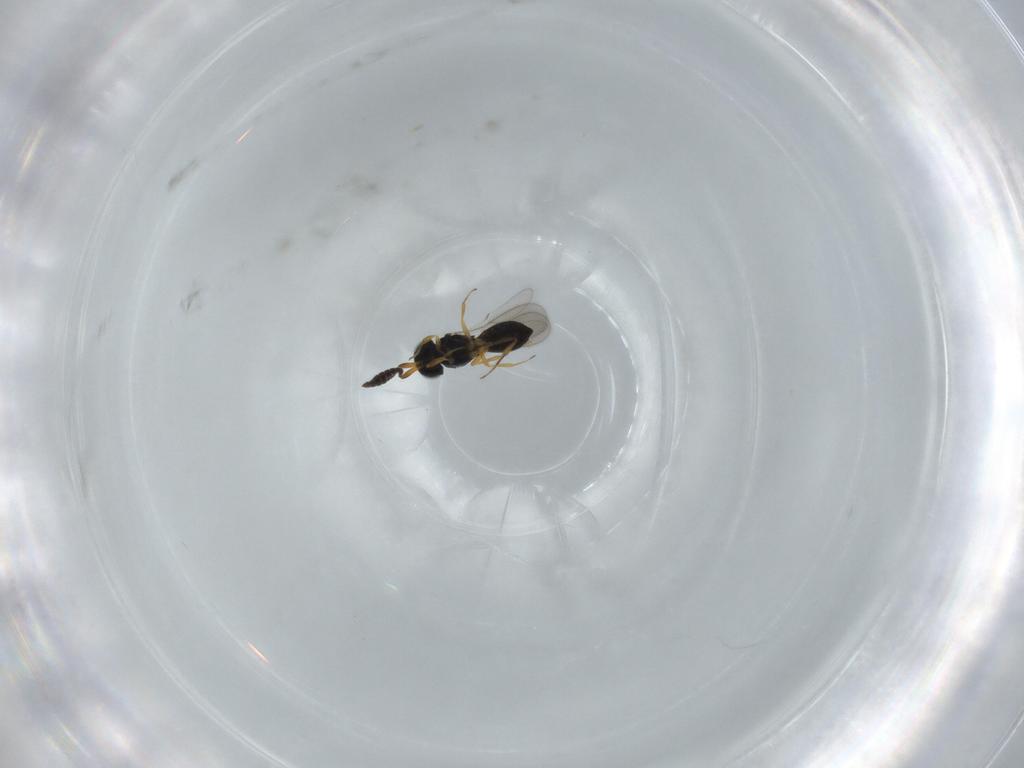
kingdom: Animalia
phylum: Arthropoda
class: Insecta
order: Hymenoptera
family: Scelionidae
